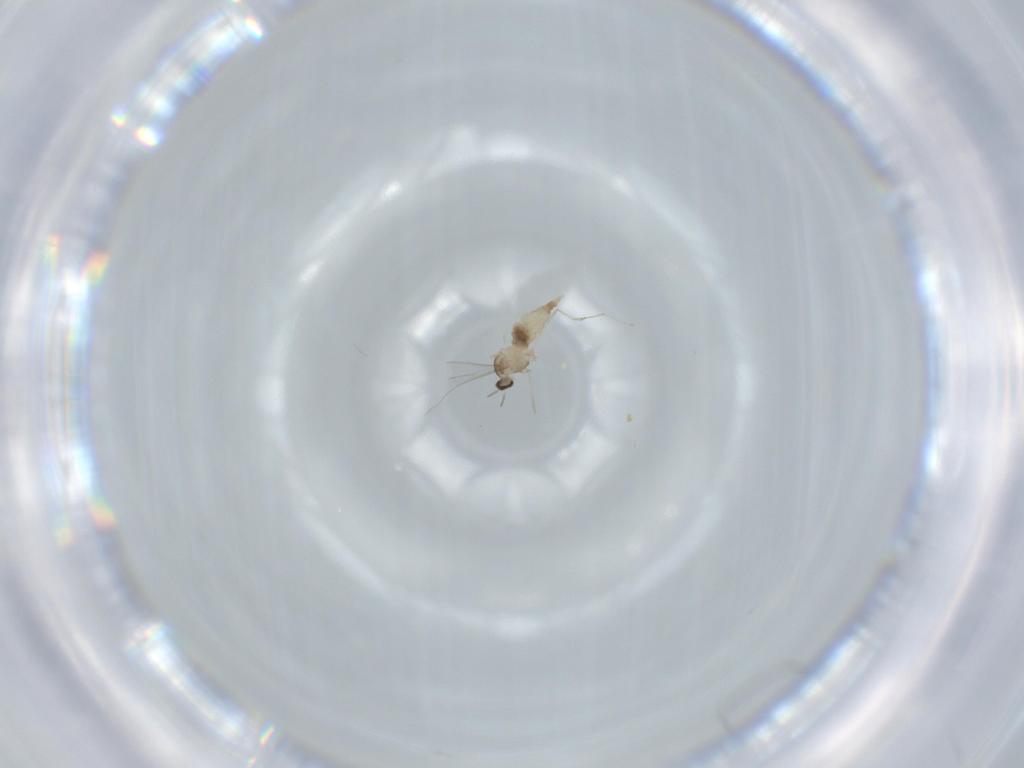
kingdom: Animalia
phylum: Arthropoda
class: Insecta
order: Diptera
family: Cecidomyiidae
